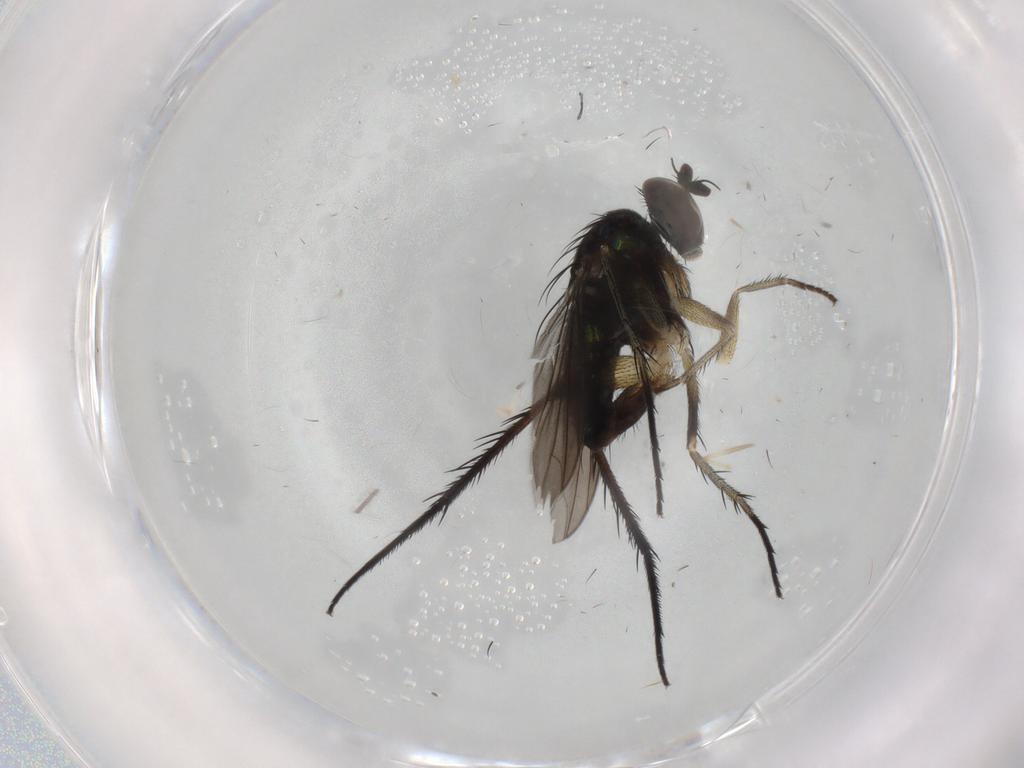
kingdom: Animalia
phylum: Arthropoda
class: Insecta
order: Diptera
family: Dolichopodidae
